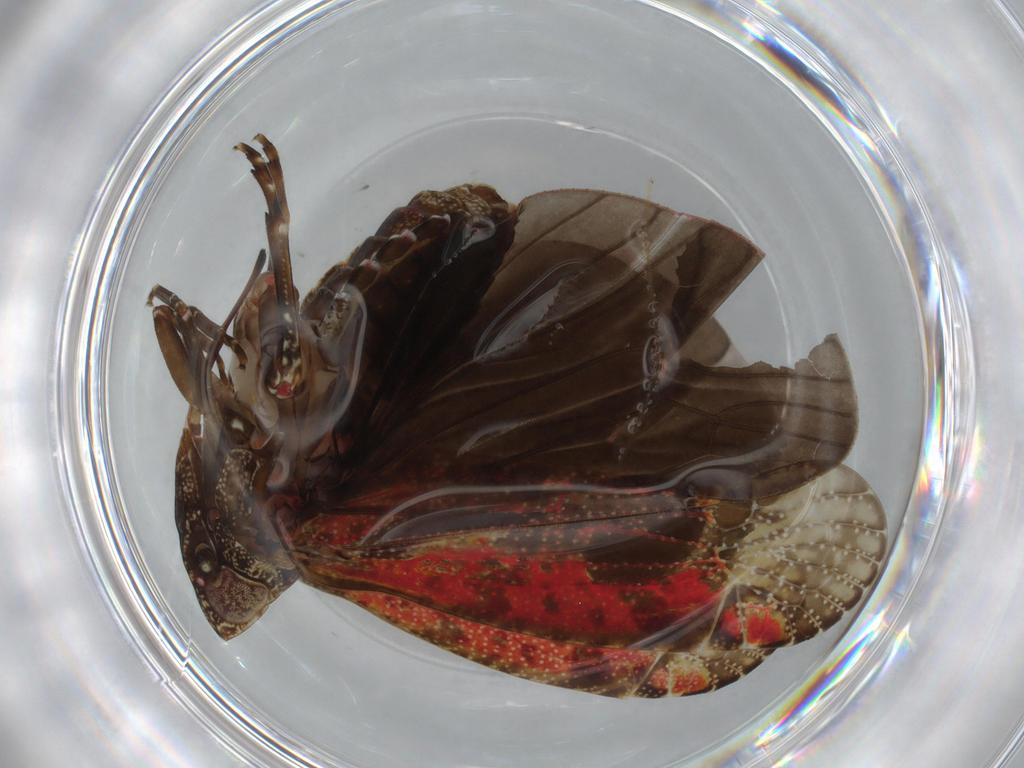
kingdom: Animalia
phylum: Arthropoda
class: Insecta
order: Hemiptera
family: Achilidae
